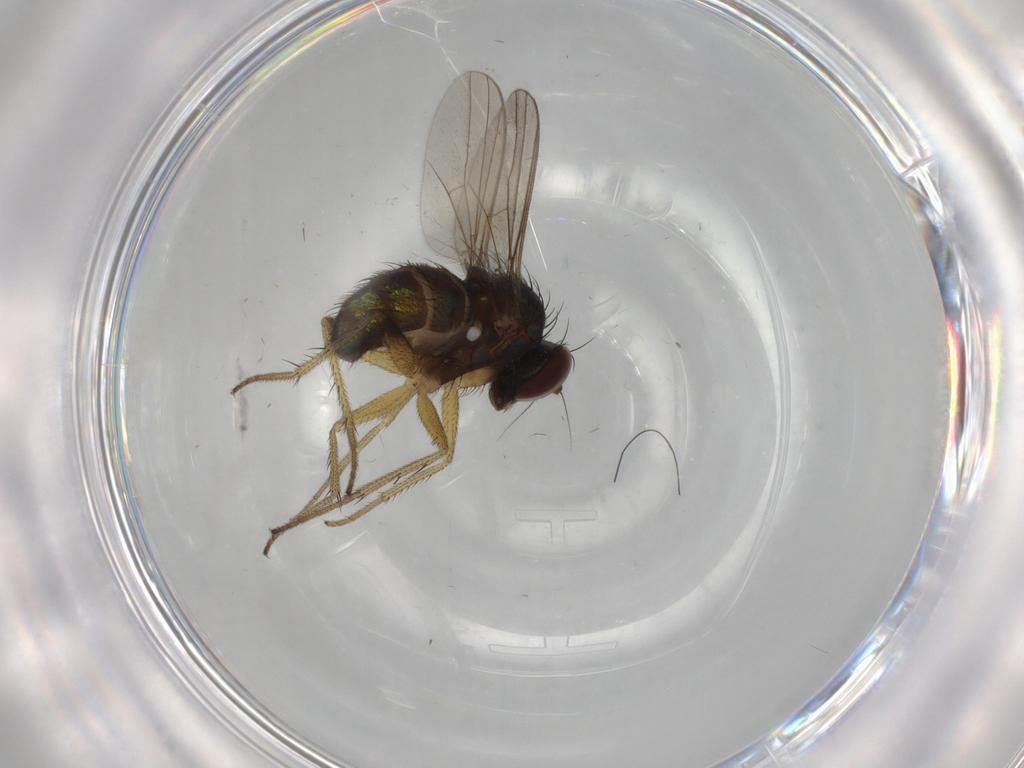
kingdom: Animalia
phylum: Arthropoda
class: Insecta
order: Diptera
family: Dolichopodidae
